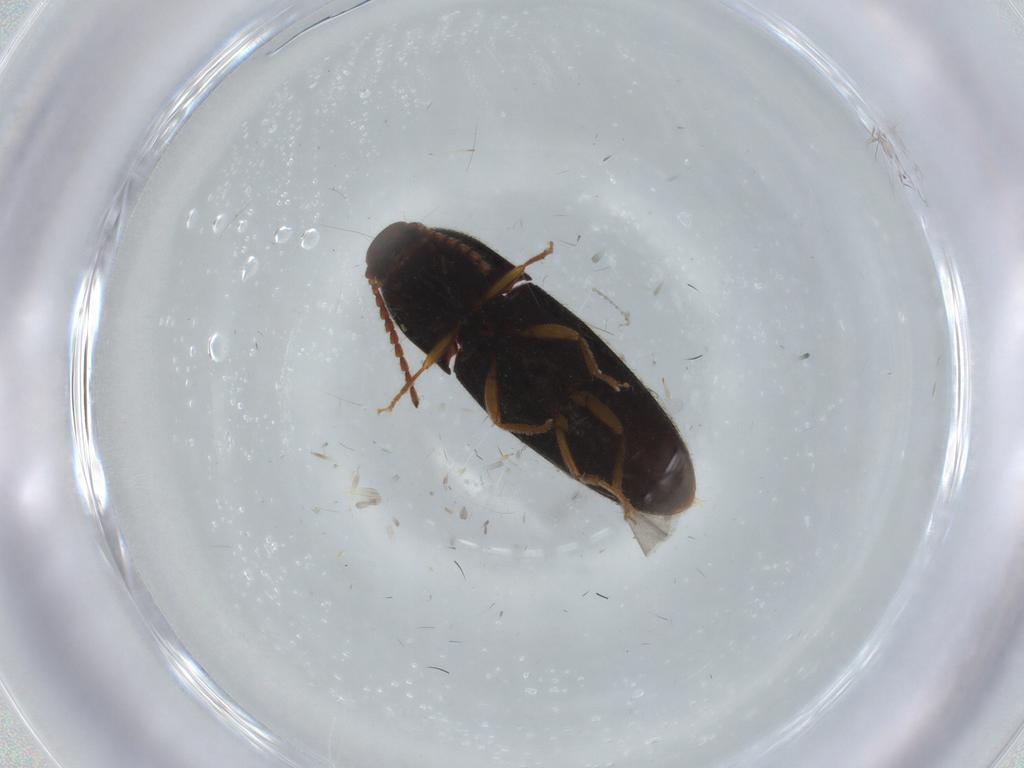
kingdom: Animalia
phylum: Arthropoda
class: Insecta
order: Coleoptera
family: Elateridae
